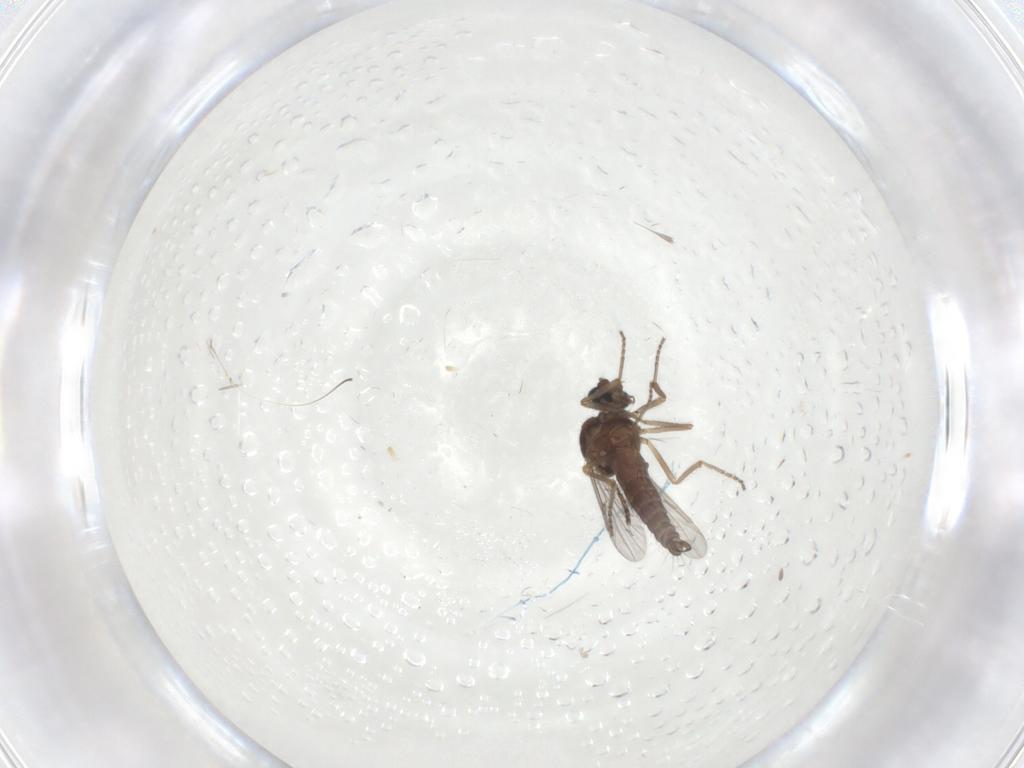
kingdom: Animalia
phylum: Arthropoda
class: Insecta
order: Diptera
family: Ceratopogonidae
